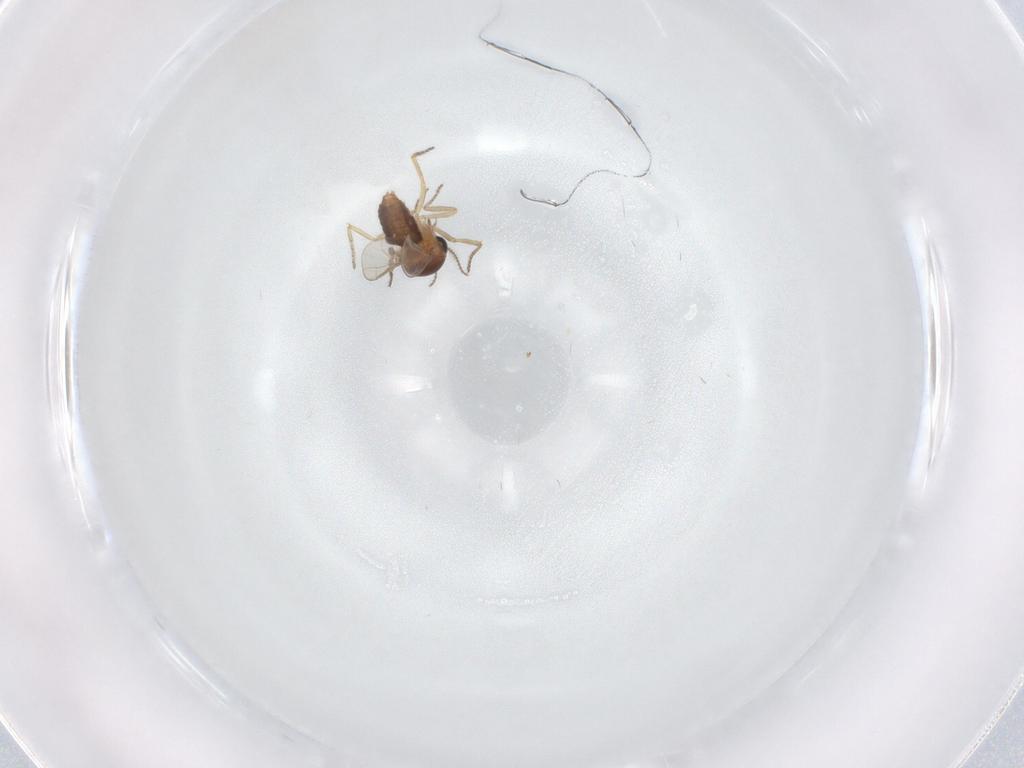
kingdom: Animalia
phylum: Arthropoda
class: Insecta
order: Diptera
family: Ceratopogonidae
